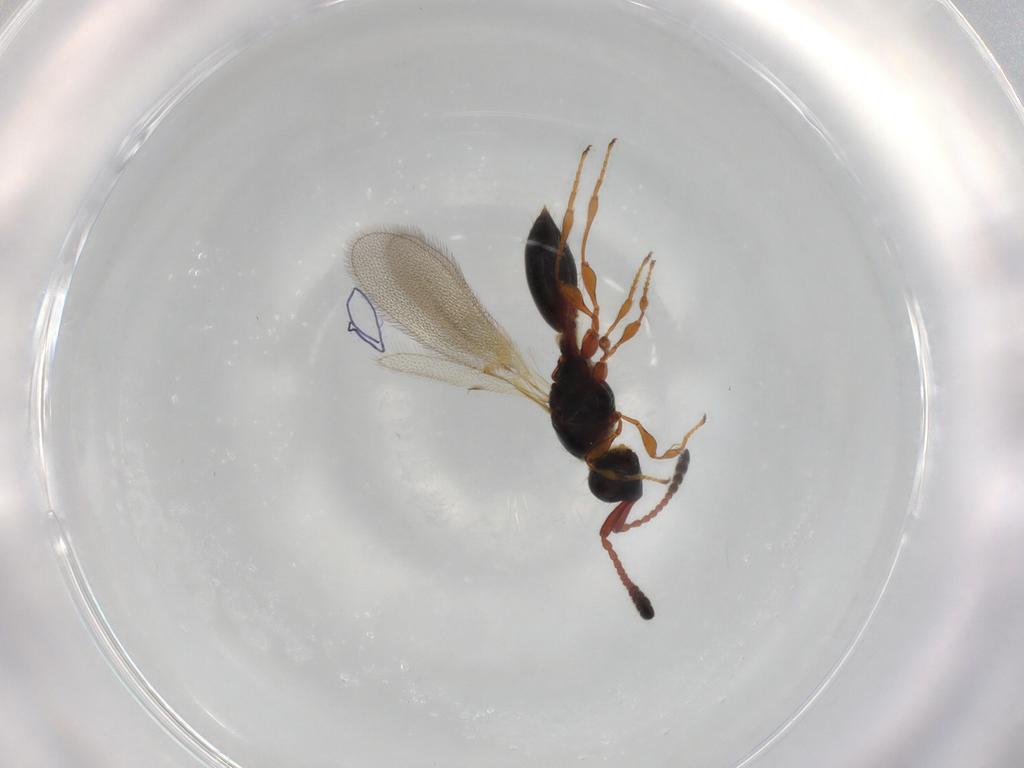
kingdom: Animalia
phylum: Arthropoda
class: Insecta
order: Hymenoptera
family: Diapriidae
